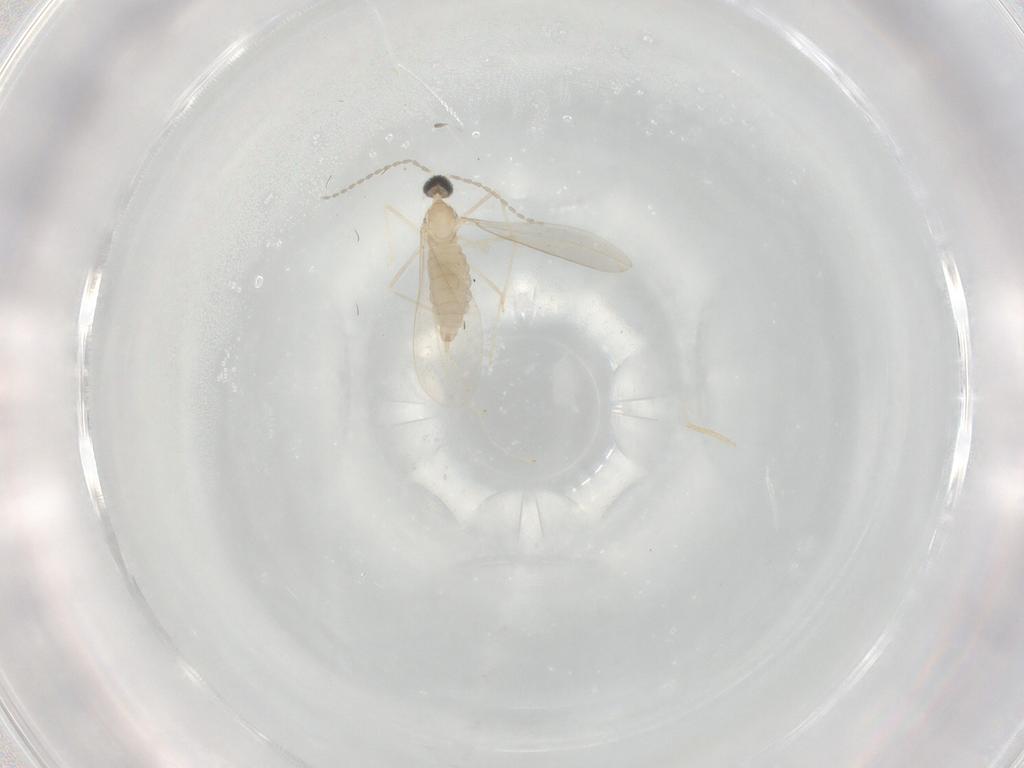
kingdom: Animalia
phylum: Arthropoda
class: Insecta
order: Diptera
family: Cecidomyiidae
